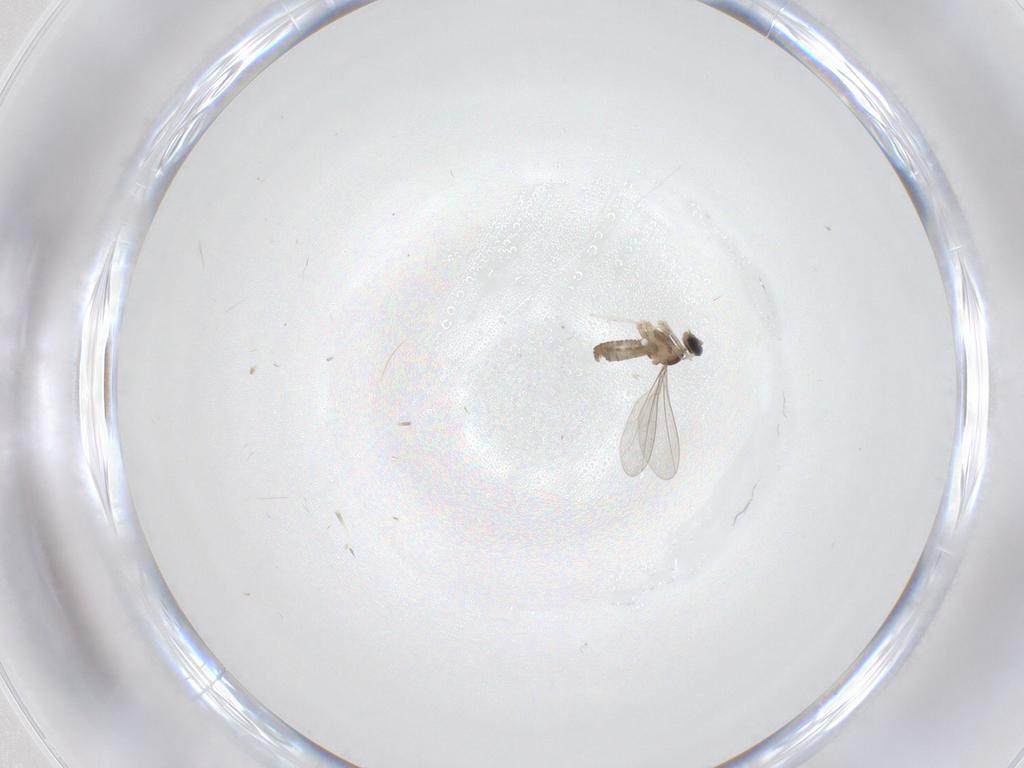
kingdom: Animalia
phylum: Arthropoda
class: Insecta
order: Diptera
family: Cecidomyiidae
